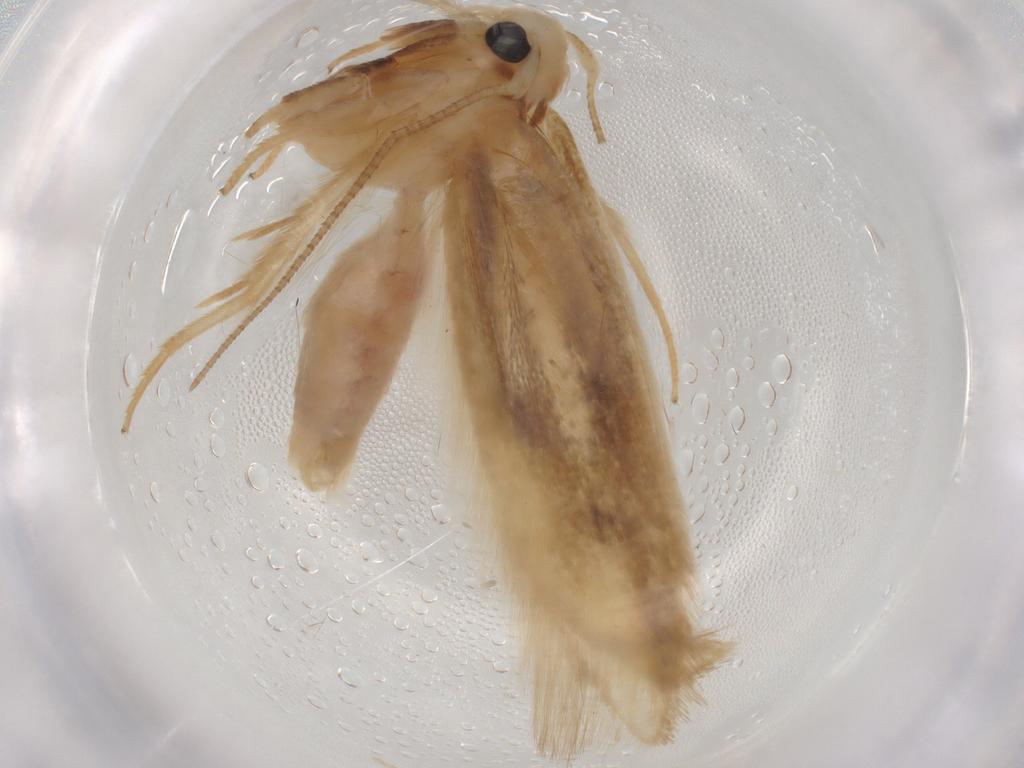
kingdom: Animalia
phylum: Arthropoda
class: Insecta
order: Lepidoptera
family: Geometridae
